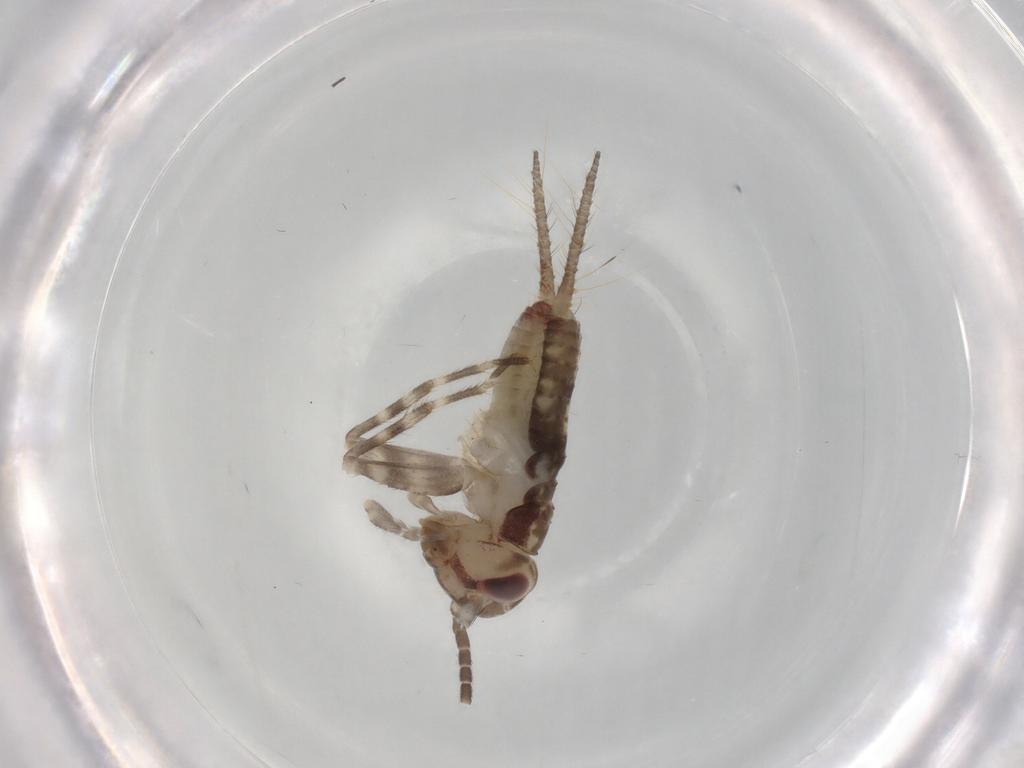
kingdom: Animalia
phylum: Arthropoda
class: Insecta
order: Orthoptera
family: Gryllidae
